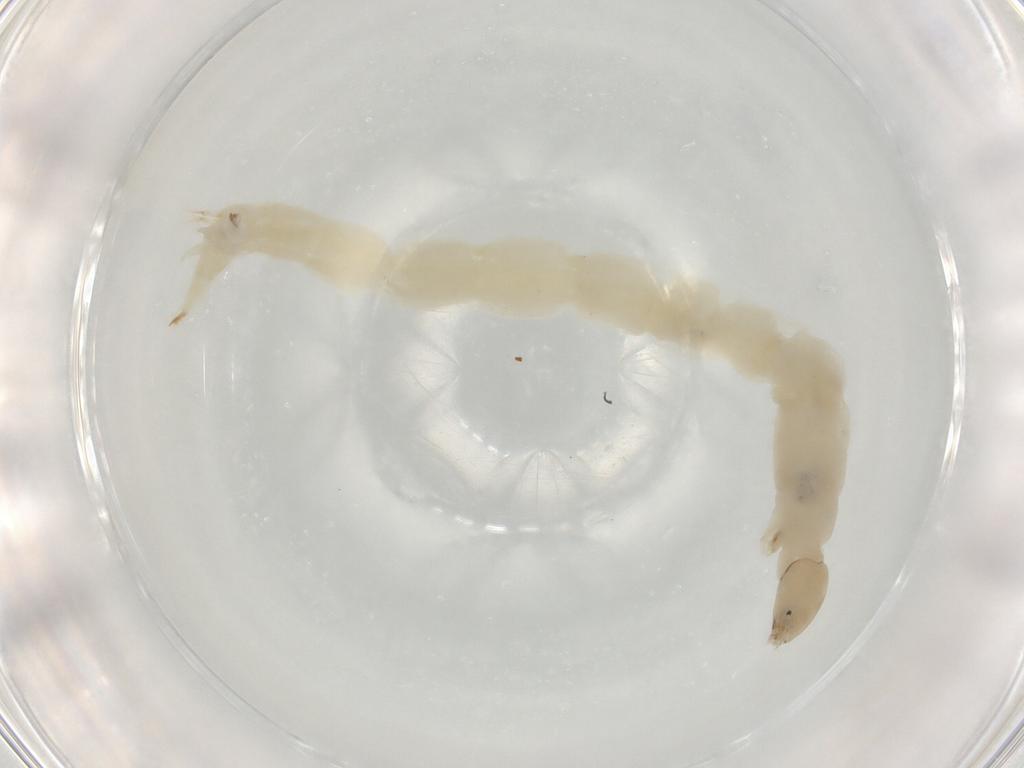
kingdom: Animalia
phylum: Arthropoda
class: Insecta
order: Diptera
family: Chironomidae
